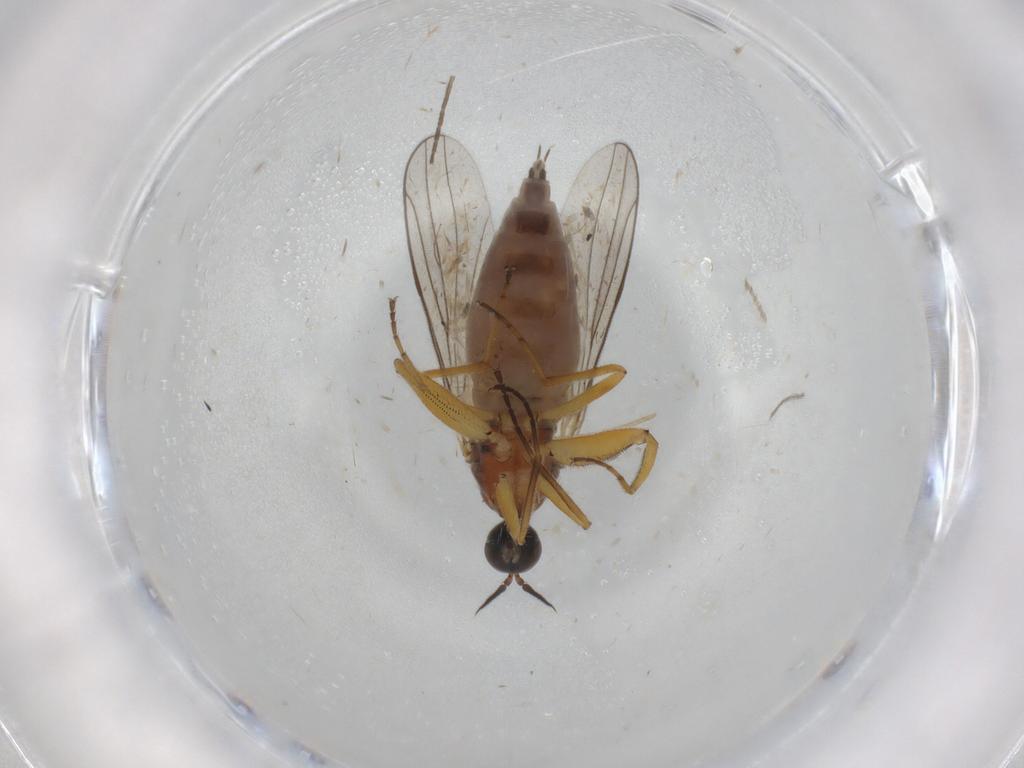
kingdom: Animalia
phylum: Arthropoda
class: Insecta
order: Diptera
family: Hybotidae
